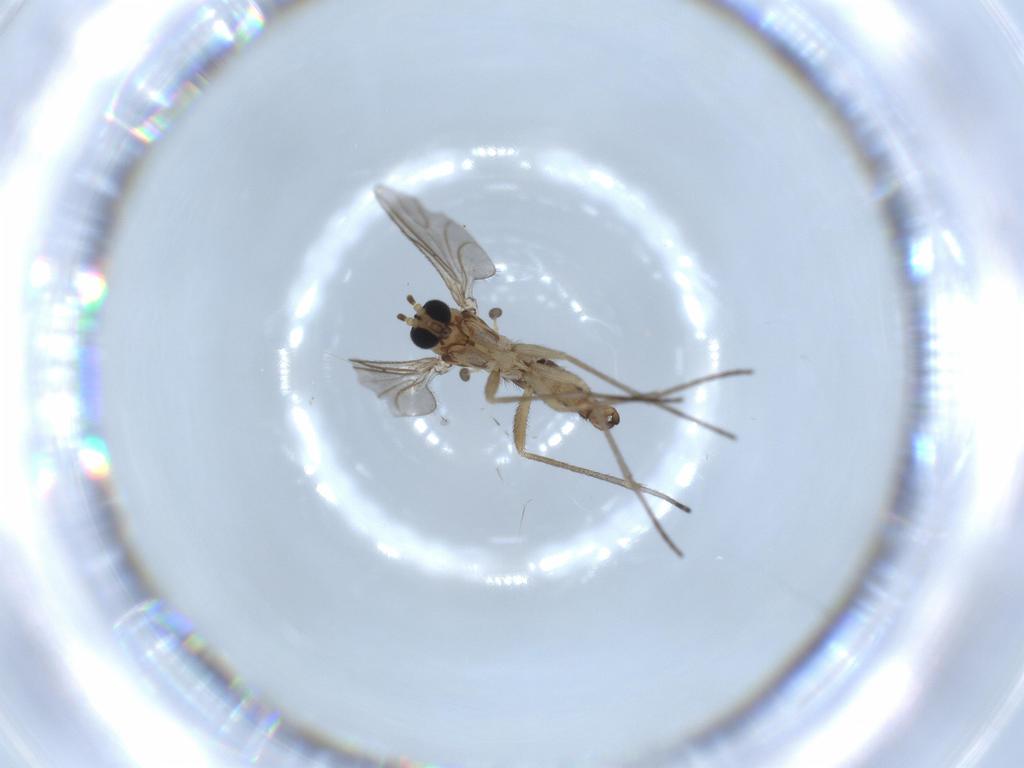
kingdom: Animalia
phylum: Arthropoda
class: Insecta
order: Diptera
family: Sciaridae
